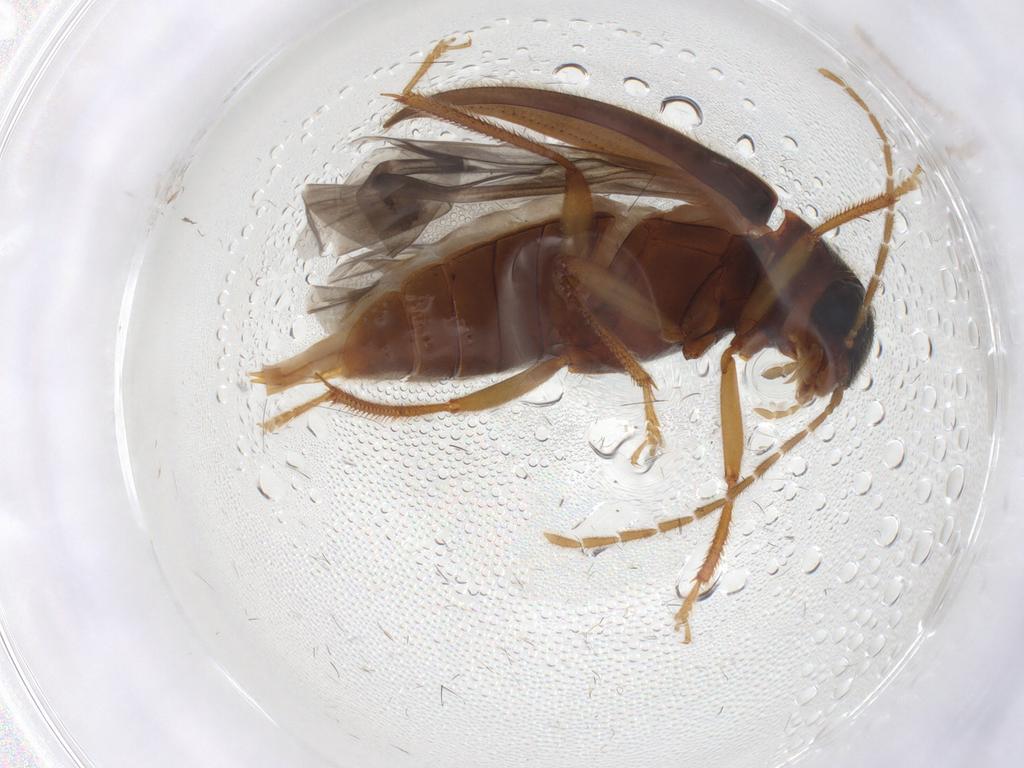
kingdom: Animalia
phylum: Arthropoda
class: Insecta
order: Coleoptera
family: Ptilodactylidae
